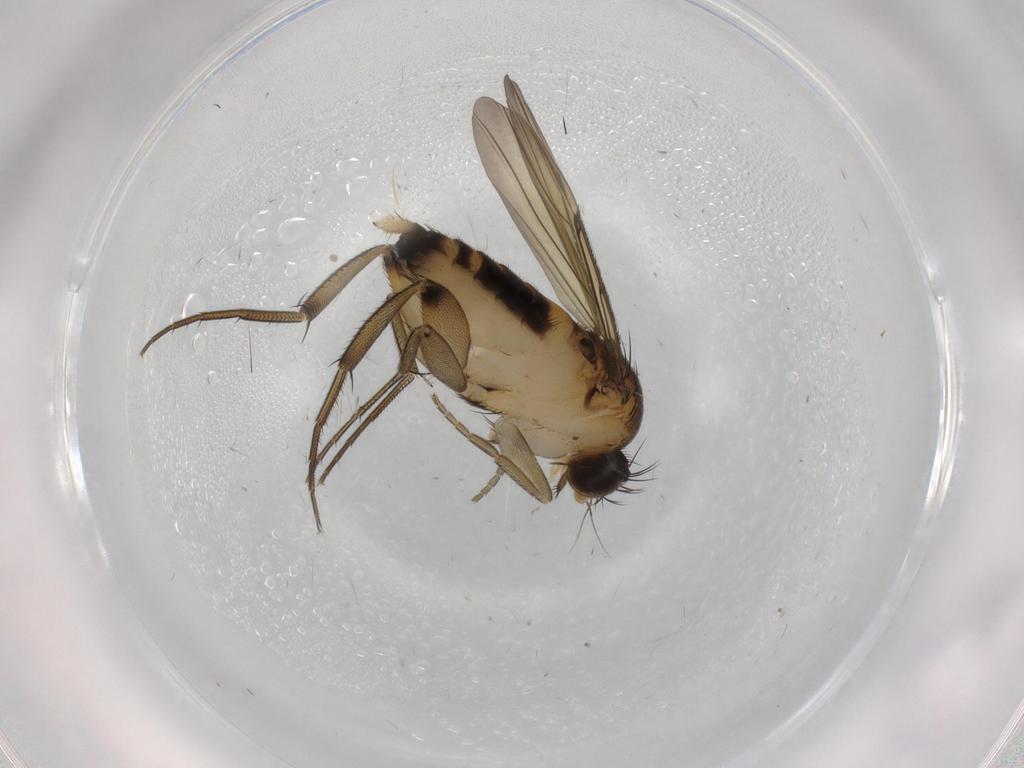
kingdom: Animalia
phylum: Arthropoda
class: Insecta
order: Diptera
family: Phoridae
